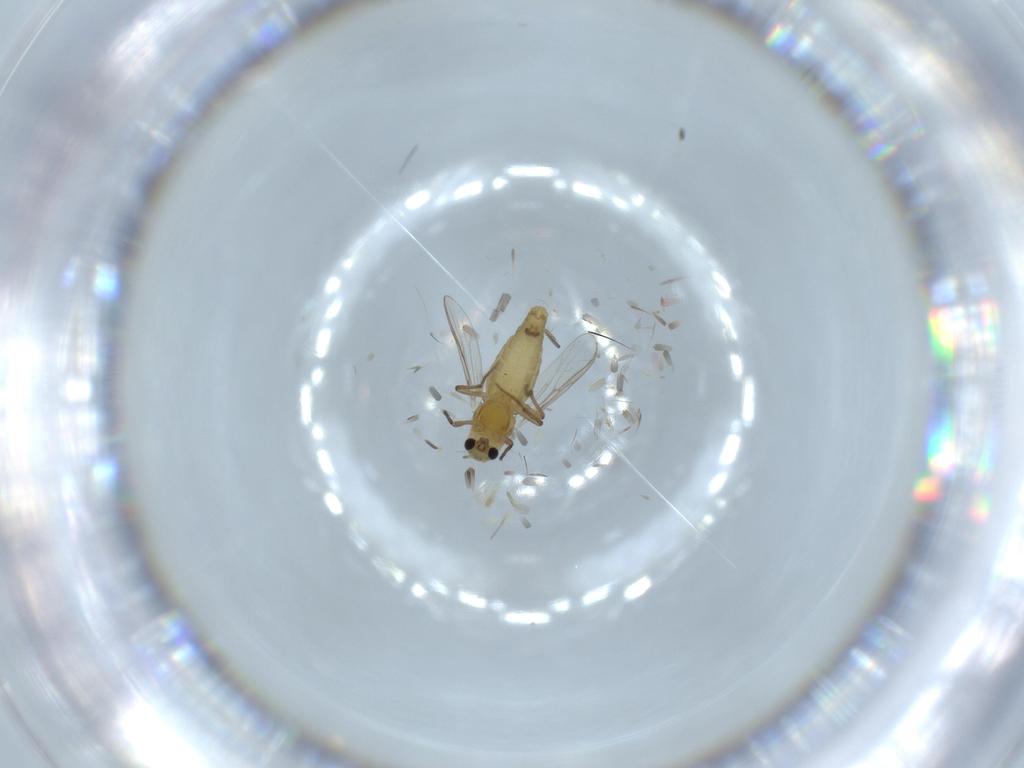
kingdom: Animalia
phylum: Arthropoda
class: Insecta
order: Diptera
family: Chironomidae
